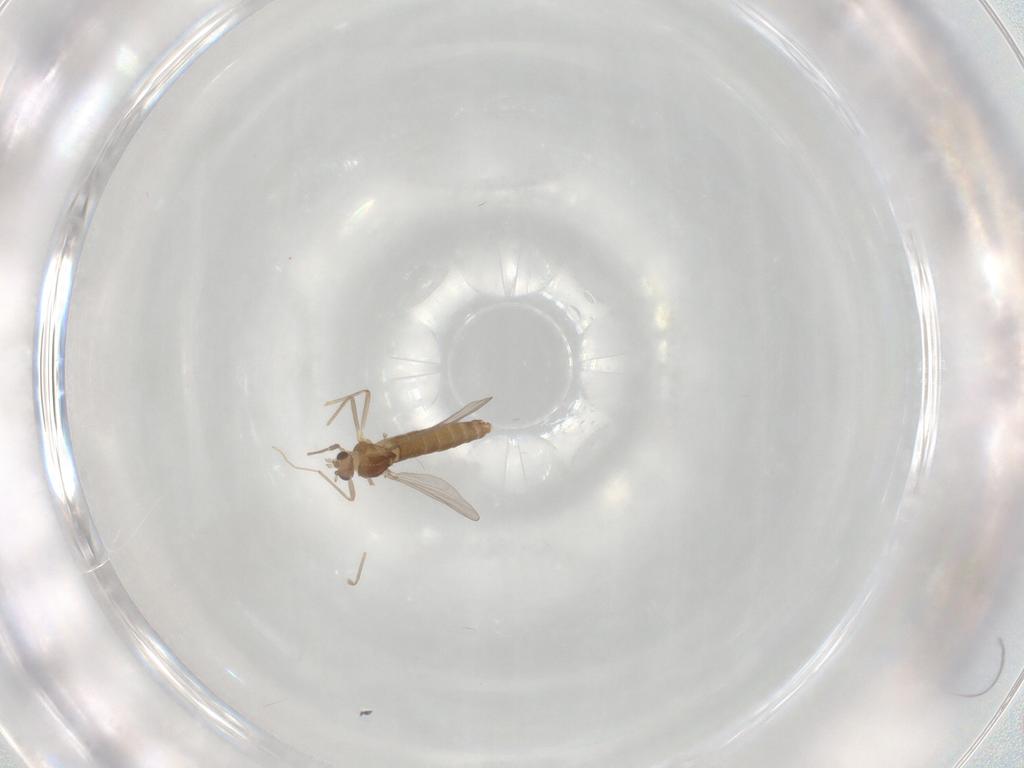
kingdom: Animalia
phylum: Arthropoda
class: Insecta
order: Diptera
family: Chironomidae
